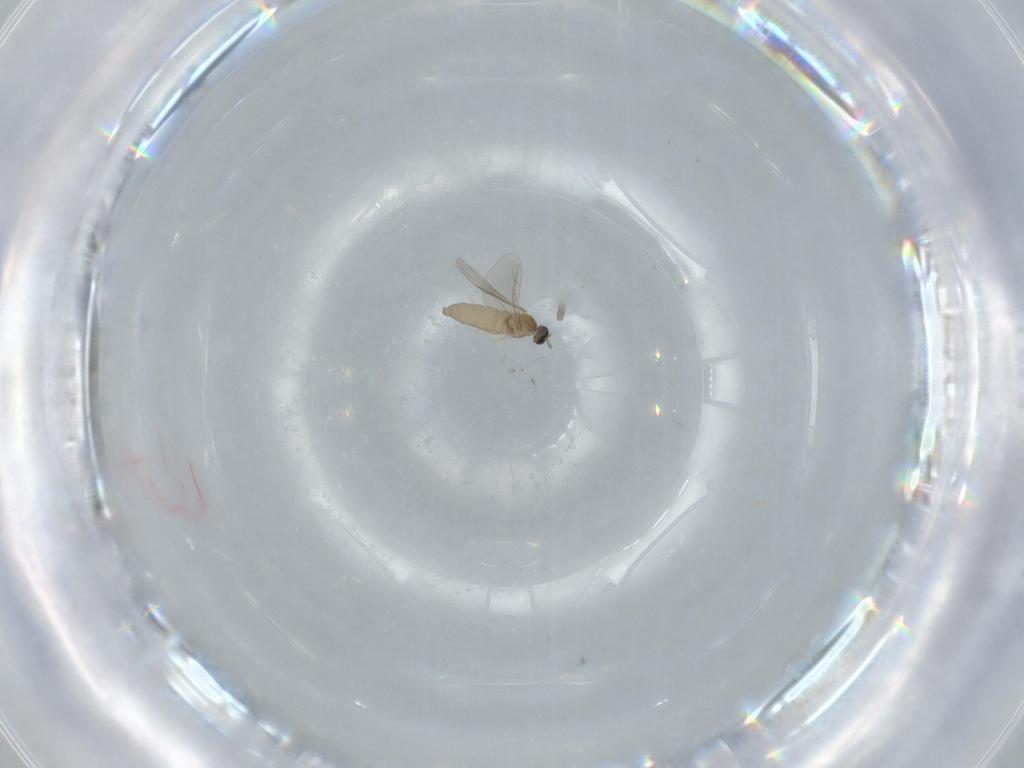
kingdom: Animalia
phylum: Arthropoda
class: Insecta
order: Diptera
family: Cecidomyiidae
